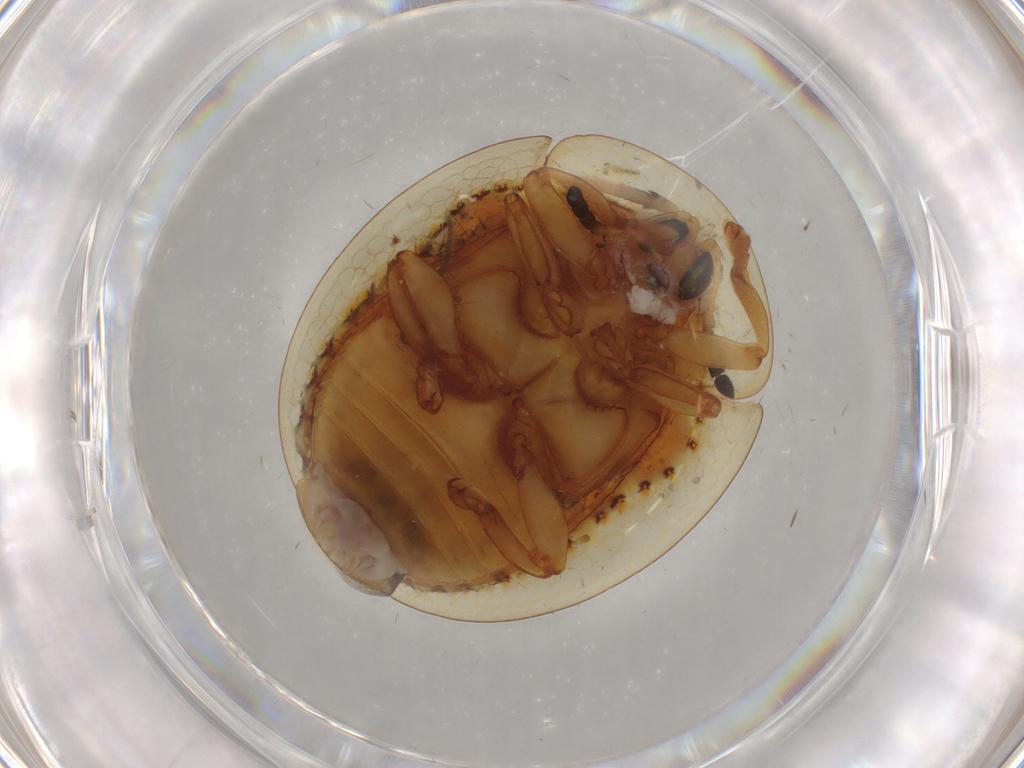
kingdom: Animalia
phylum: Arthropoda
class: Insecta
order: Coleoptera
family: Chrysomelidae
